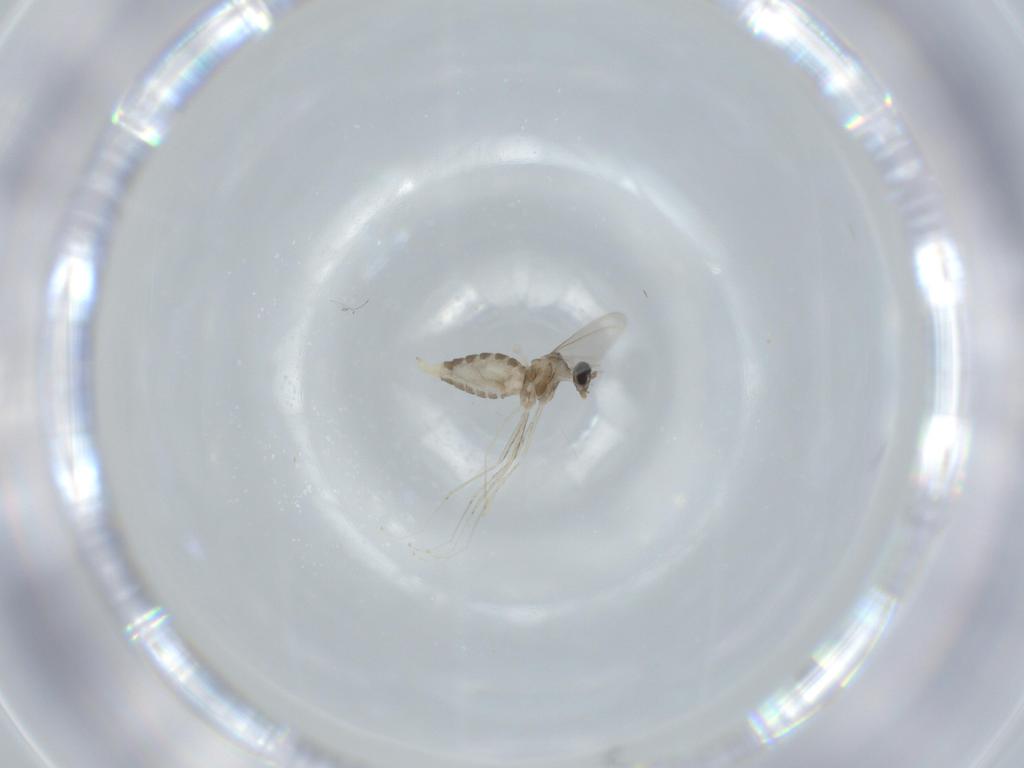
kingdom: Animalia
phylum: Arthropoda
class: Insecta
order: Diptera
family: Cecidomyiidae
